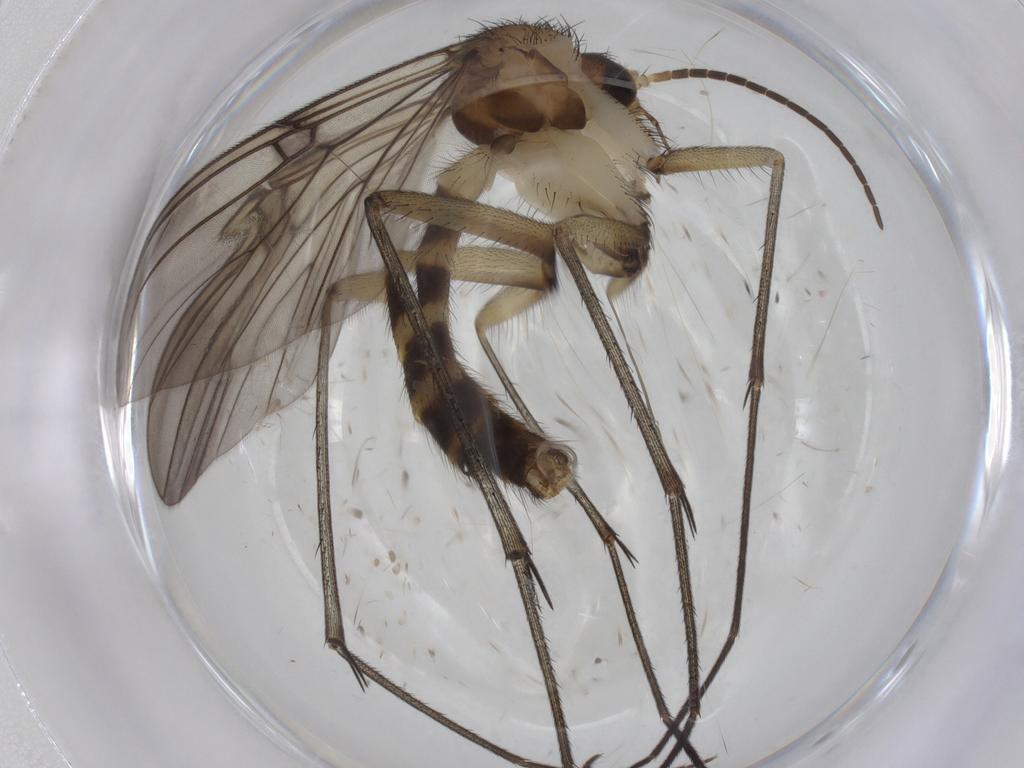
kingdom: Animalia
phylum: Arthropoda
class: Insecta
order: Diptera
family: Mycetophilidae
